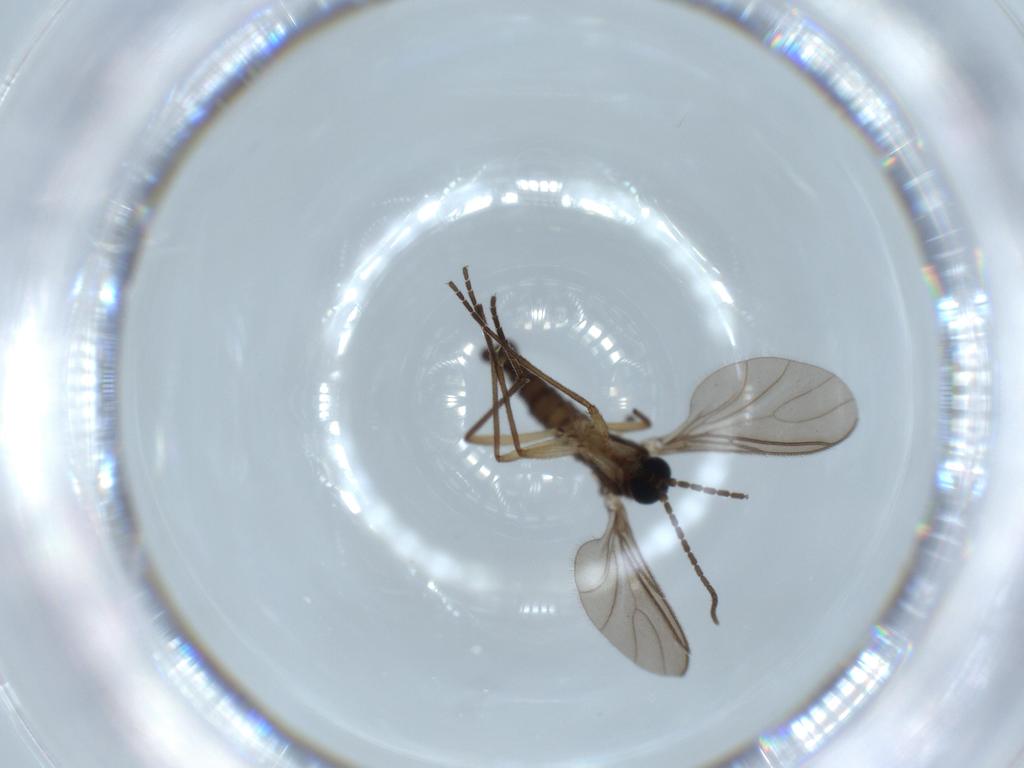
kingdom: Animalia
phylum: Arthropoda
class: Insecta
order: Diptera
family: Sciaridae
